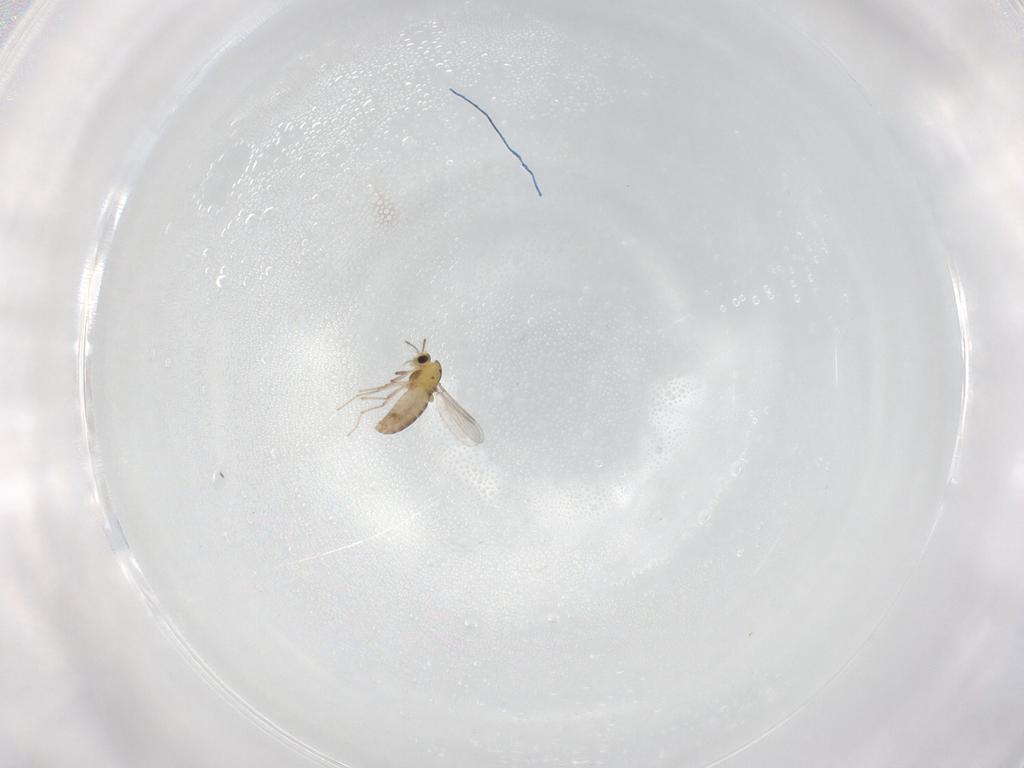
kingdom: Animalia
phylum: Arthropoda
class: Insecta
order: Diptera
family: Chironomidae
